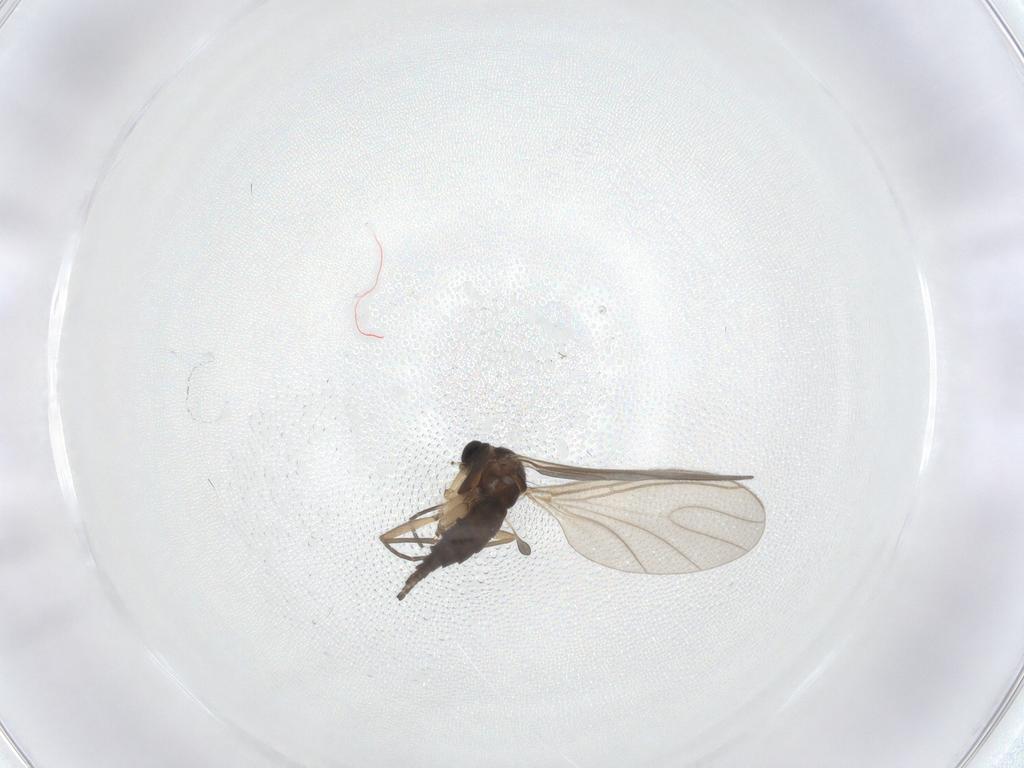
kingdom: Animalia
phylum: Arthropoda
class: Insecta
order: Diptera
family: Sciaridae
